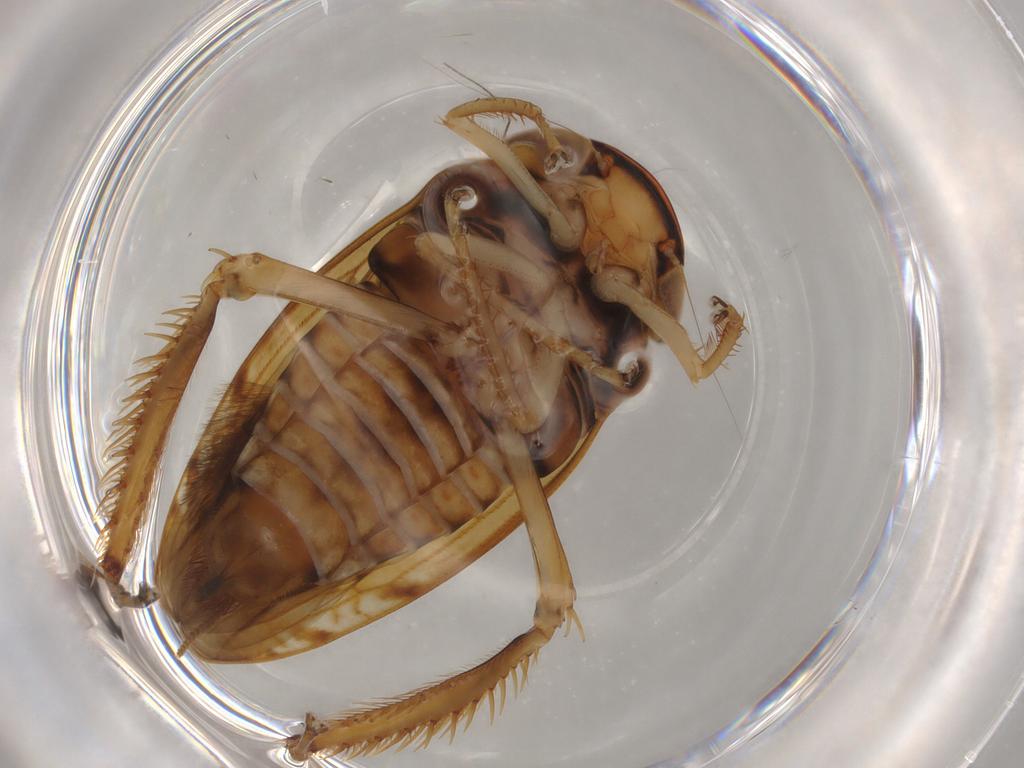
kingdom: Animalia
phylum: Arthropoda
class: Insecta
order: Hemiptera
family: Cicadellidae
